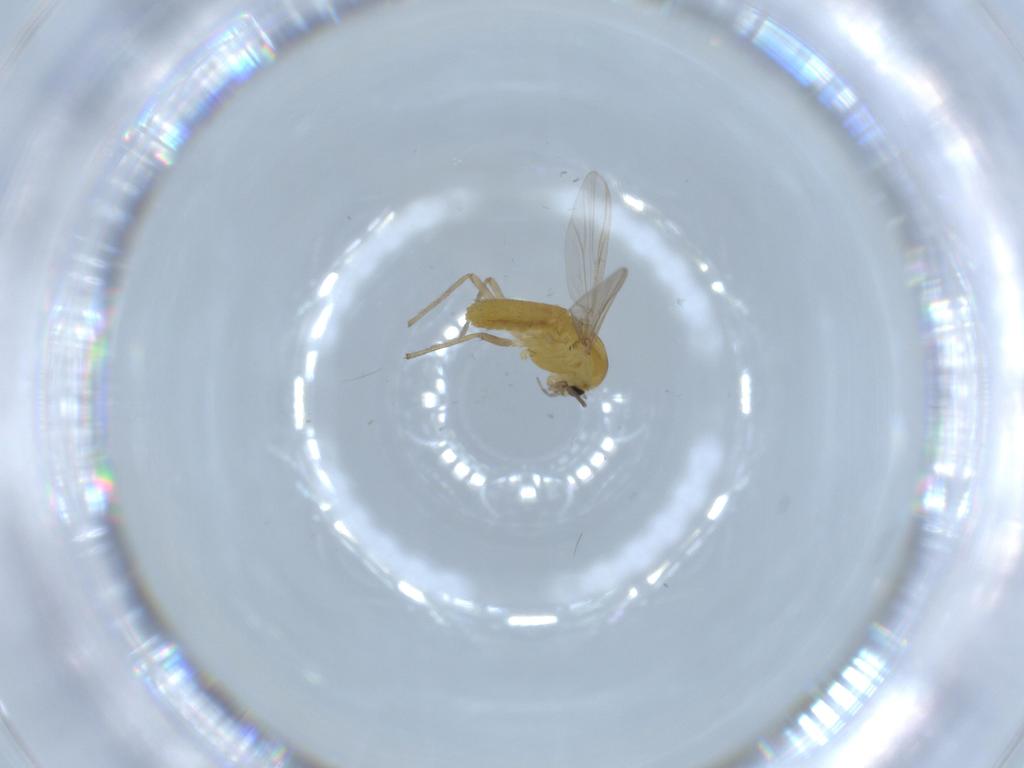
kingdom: Animalia
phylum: Arthropoda
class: Insecta
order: Diptera
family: Chironomidae
